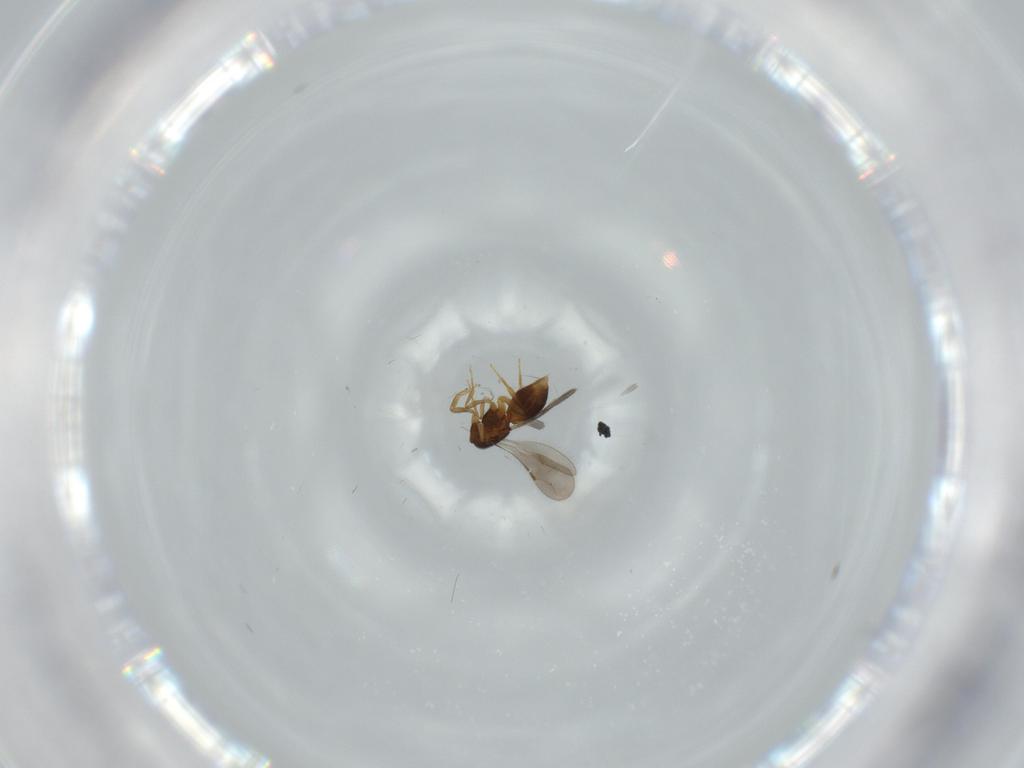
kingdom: Animalia
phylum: Arthropoda
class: Insecta
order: Hymenoptera
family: Ceraphronidae
